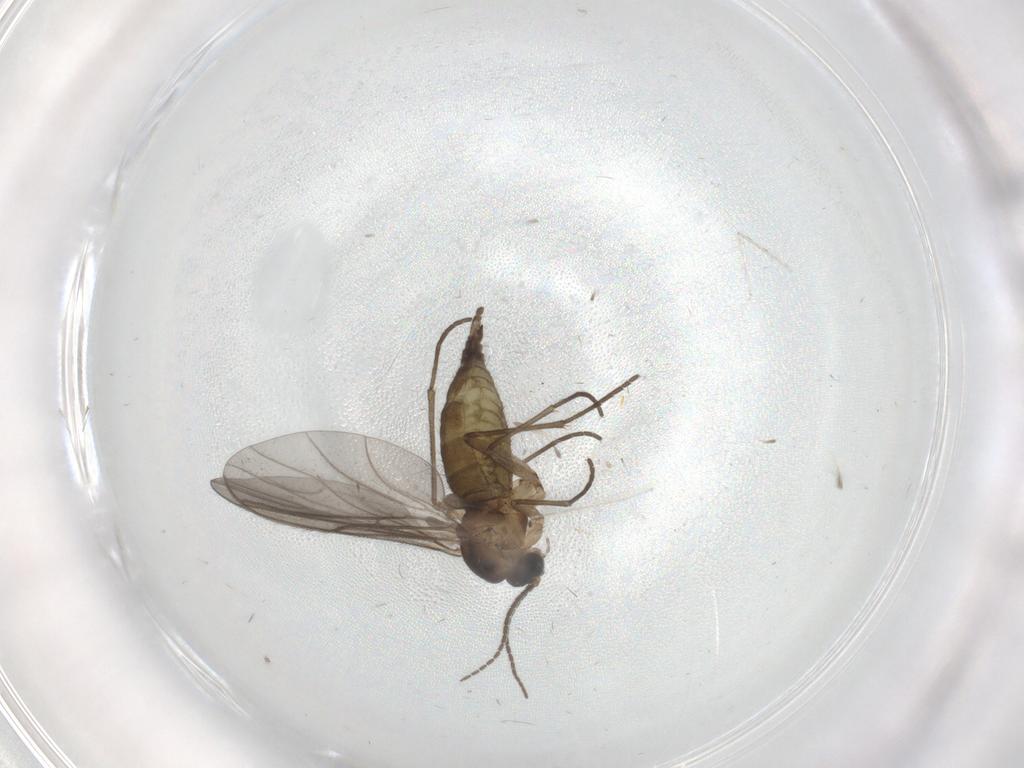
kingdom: Animalia
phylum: Arthropoda
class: Insecta
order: Diptera
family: Cecidomyiidae
